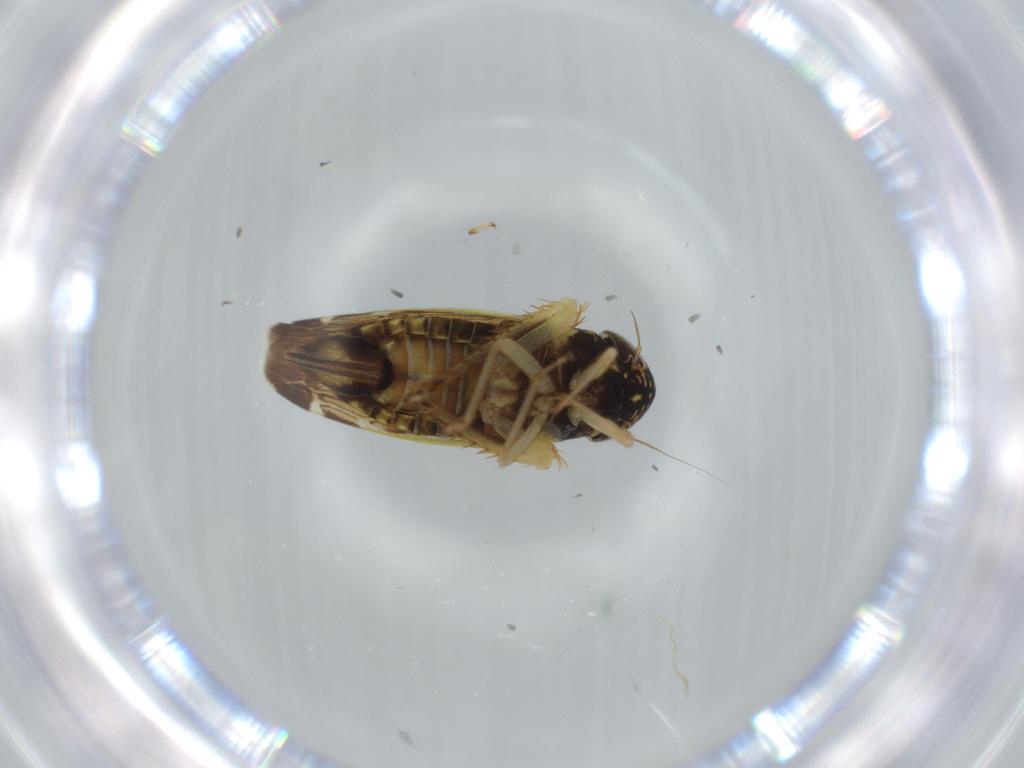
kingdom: Animalia
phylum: Arthropoda
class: Insecta
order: Hemiptera
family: Cicadellidae
